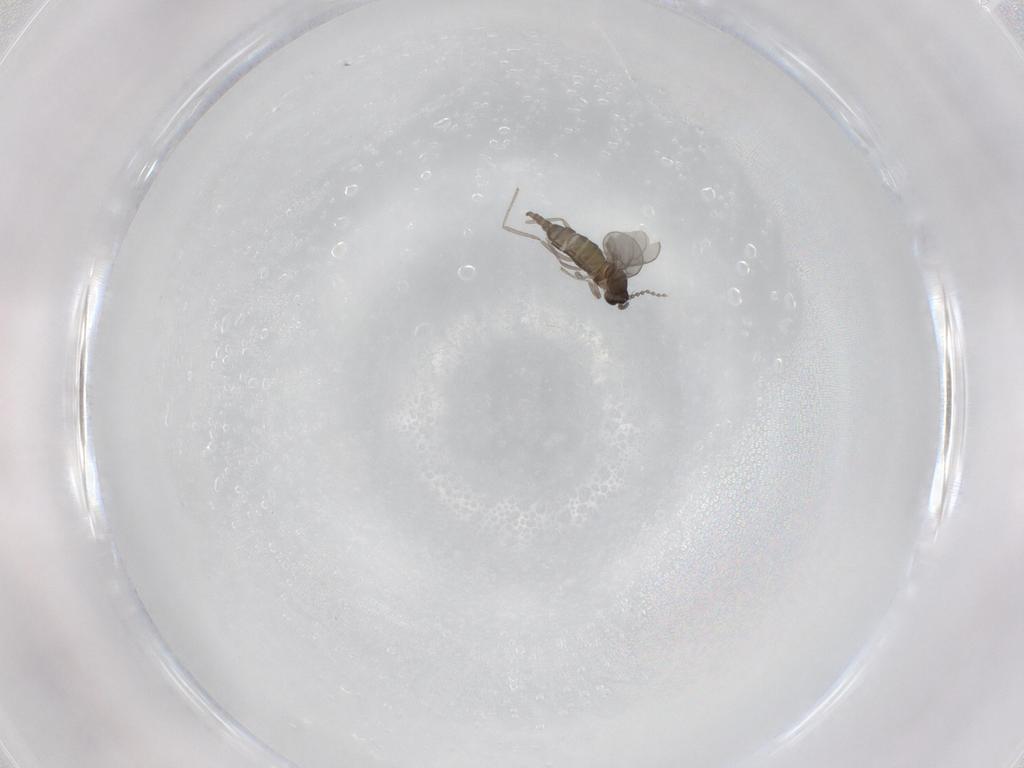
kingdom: Animalia
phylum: Arthropoda
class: Insecta
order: Diptera
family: Cecidomyiidae
